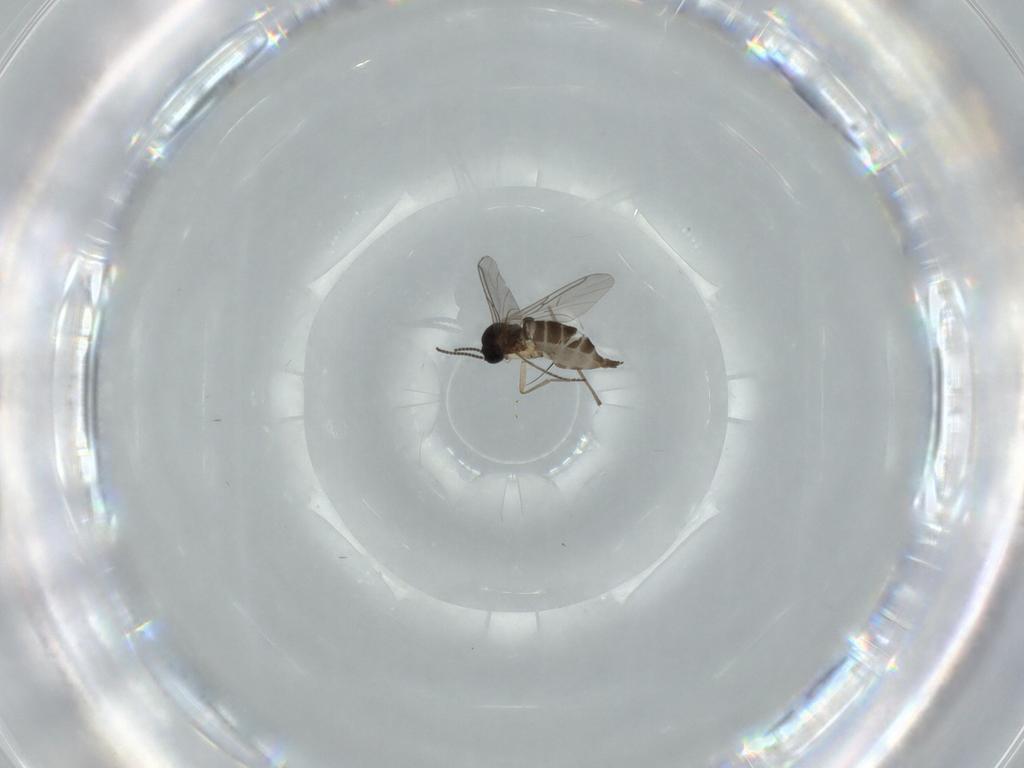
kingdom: Animalia
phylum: Arthropoda
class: Insecta
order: Diptera
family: Sciaridae
